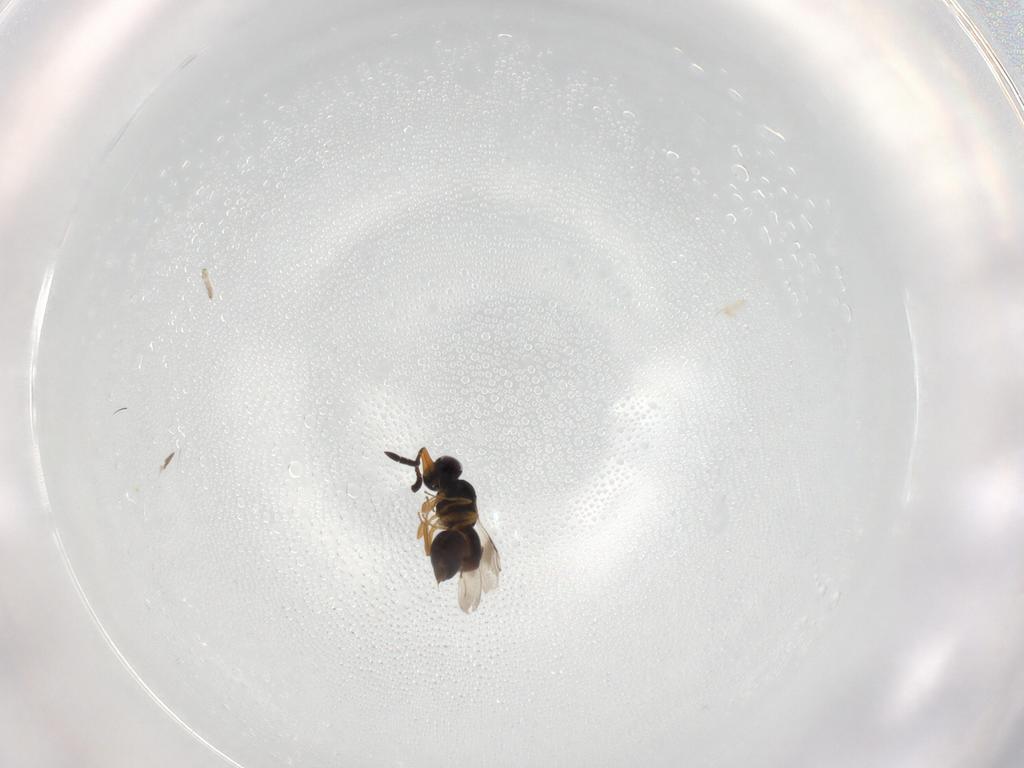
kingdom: Animalia
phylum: Arthropoda
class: Insecta
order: Hymenoptera
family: Ceraphronidae
